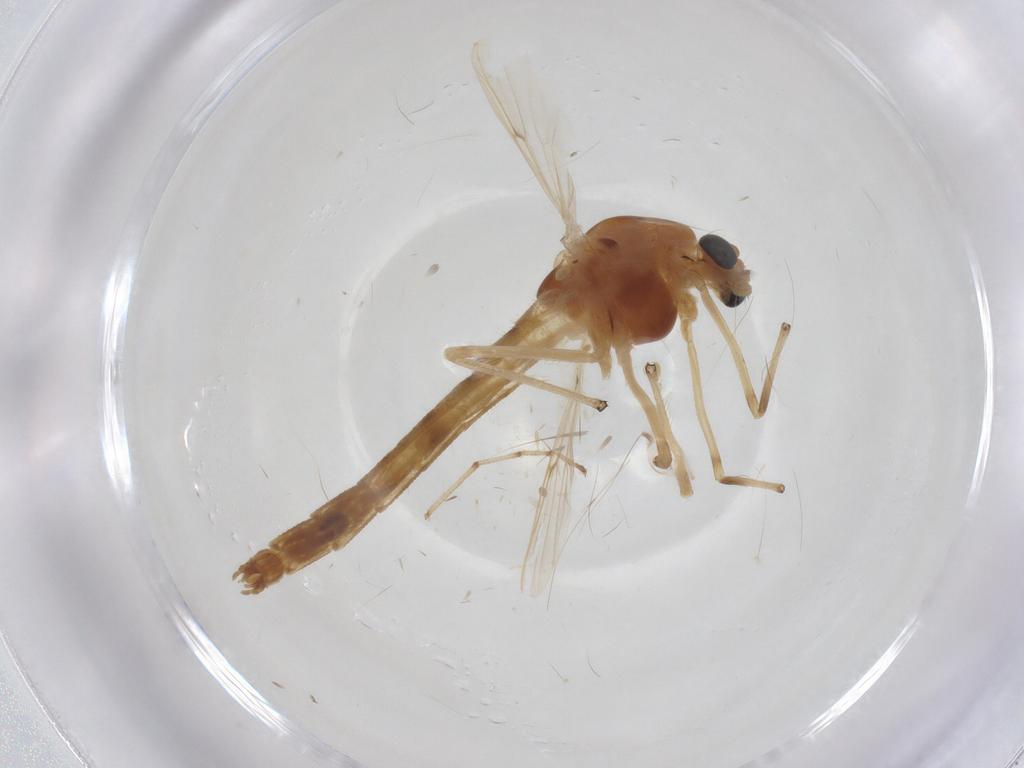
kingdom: Animalia
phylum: Arthropoda
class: Insecta
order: Diptera
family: Chironomidae
